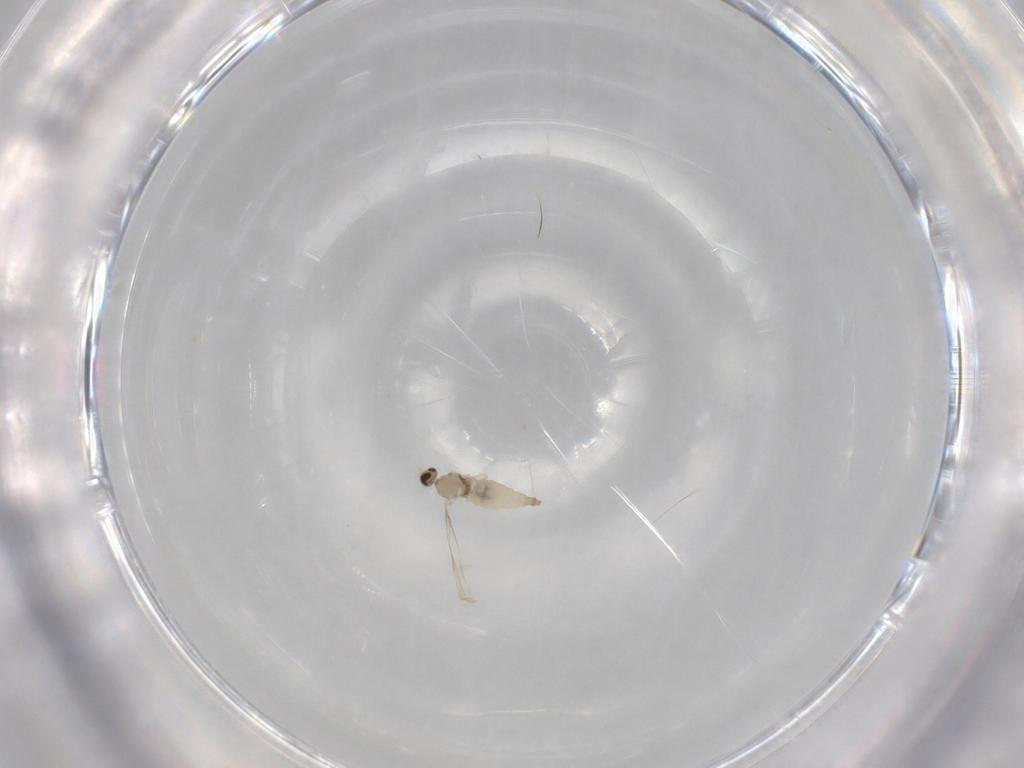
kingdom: Animalia
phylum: Arthropoda
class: Insecta
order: Diptera
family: Cecidomyiidae
